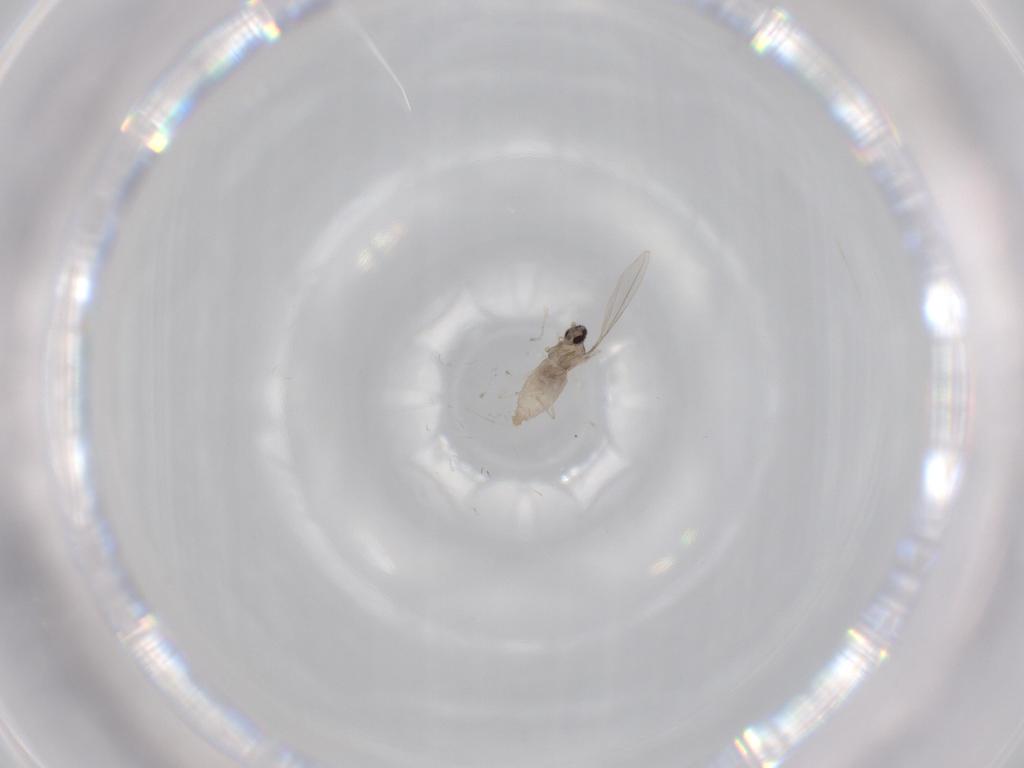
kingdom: Animalia
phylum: Arthropoda
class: Insecta
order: Diptera
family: Cecidomyiidae
